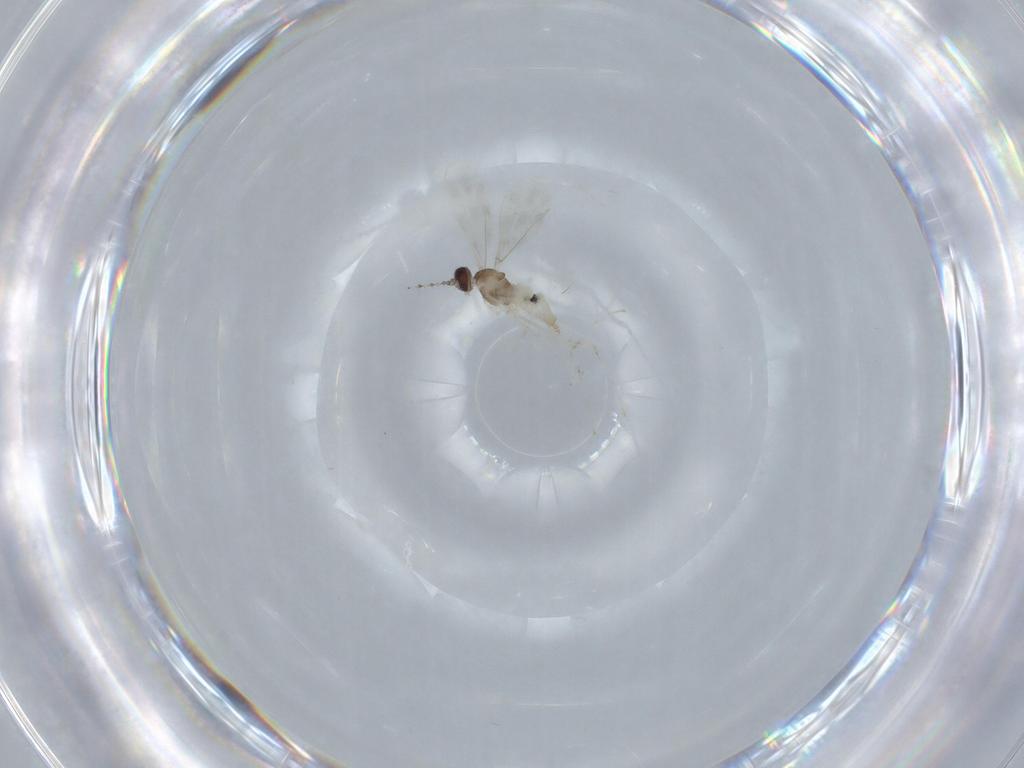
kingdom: Animalia
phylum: Arthropoda
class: Insecta
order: Diptera
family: Cecidomyiidae
